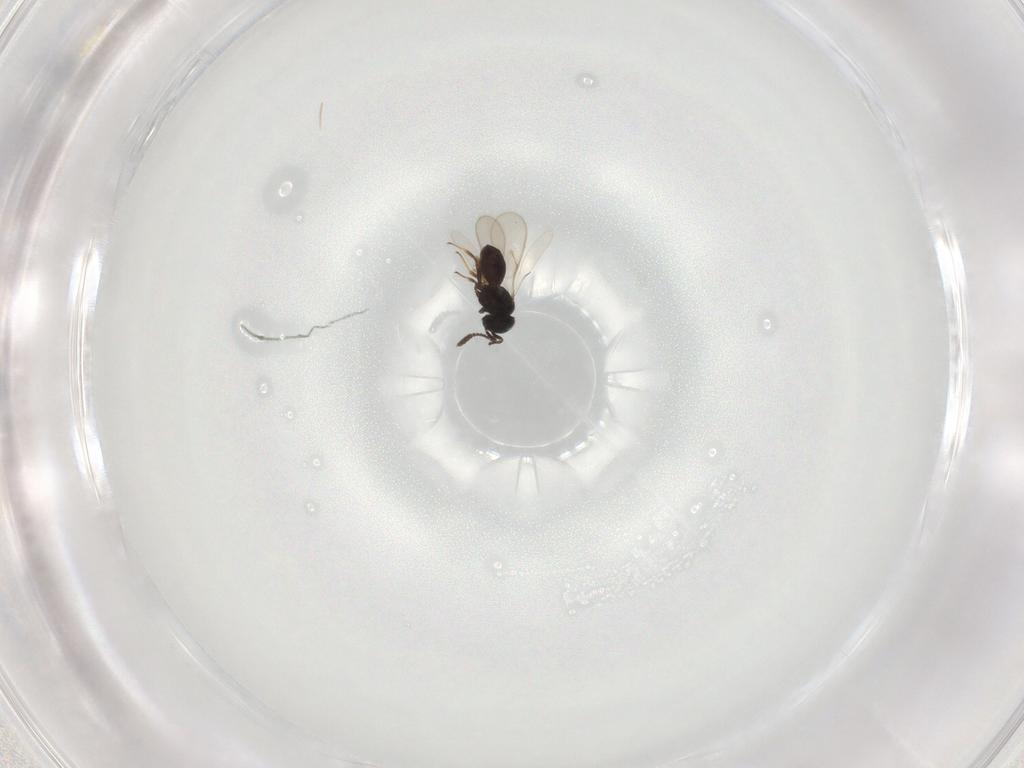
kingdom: Animalia
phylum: Arthropoda
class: Insecta
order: Hymenoptera
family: Scelionidae
